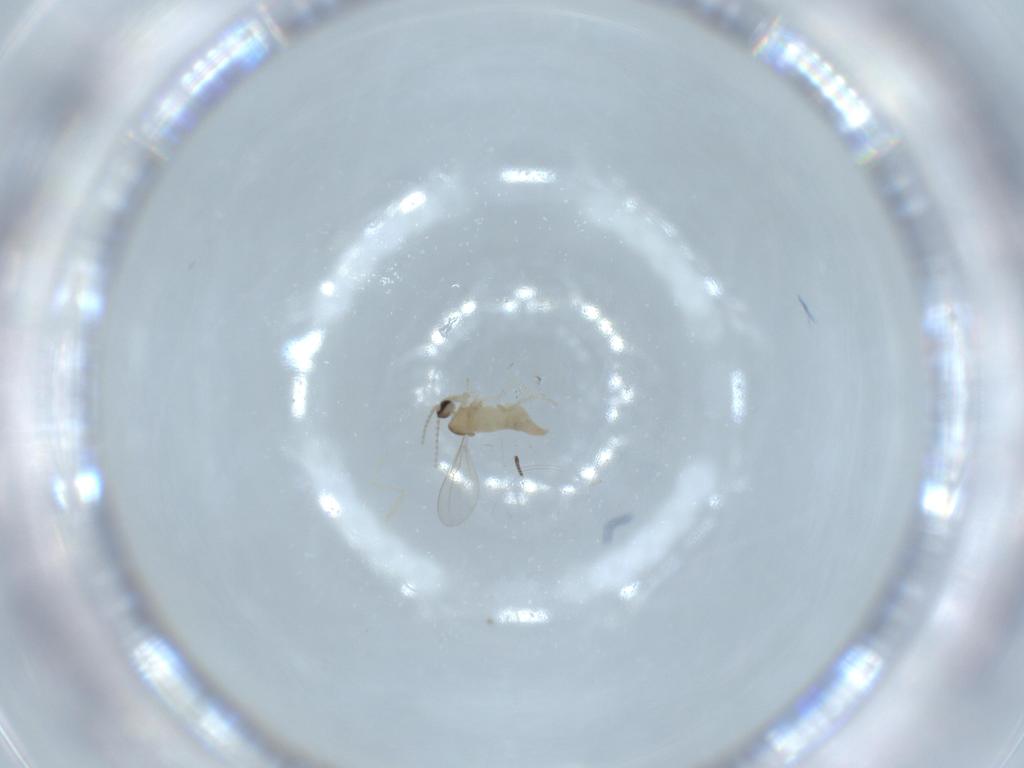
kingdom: Animalia
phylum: Arthropoda
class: Insecta
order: Diptera
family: Cecidomyiidae
